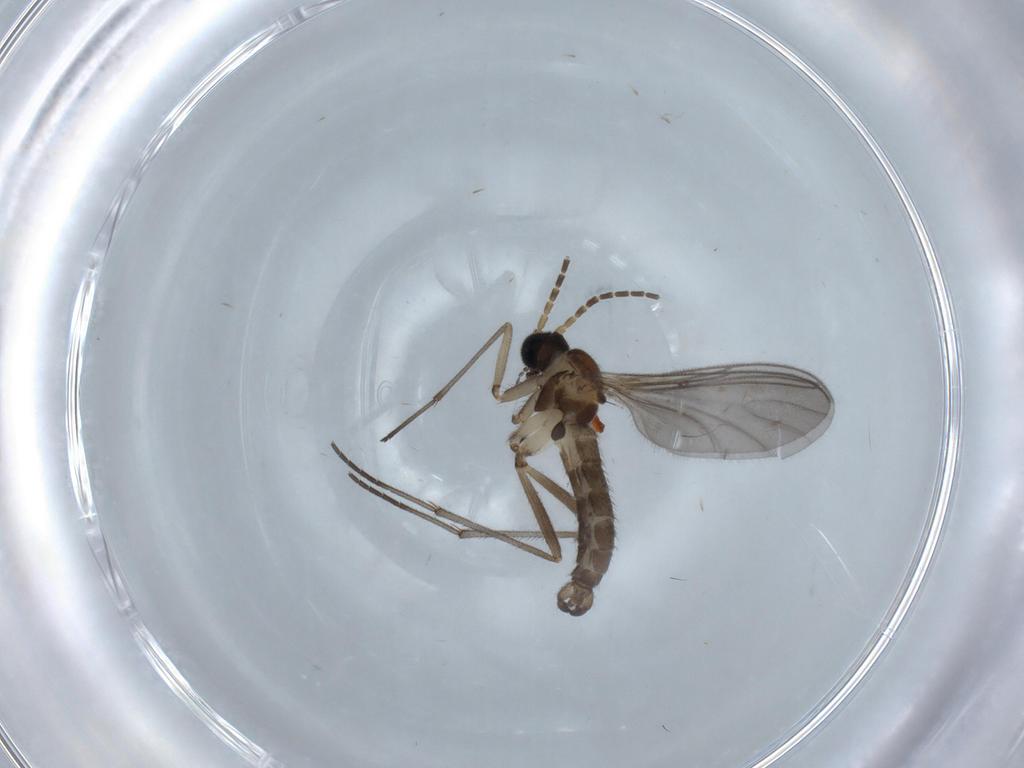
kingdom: Animalia
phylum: Arthropoda
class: Insecta
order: Diptera
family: Sciaridae
